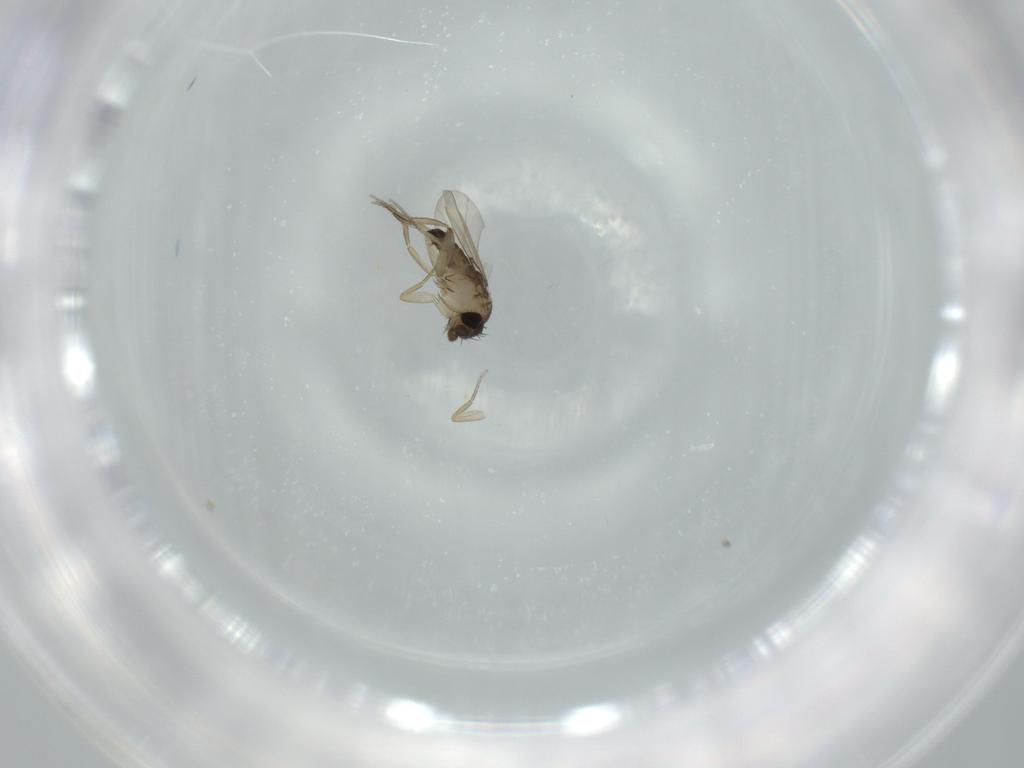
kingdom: Animalia
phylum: Arthropoda
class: Insecta
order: Diptera
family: Phoridae
